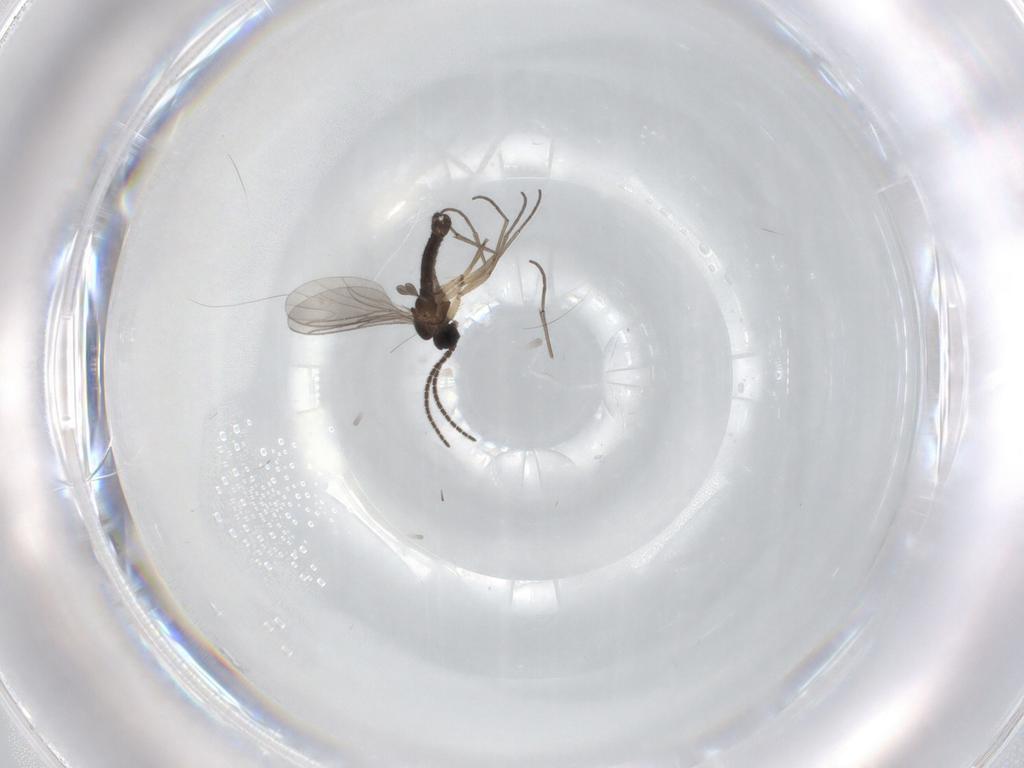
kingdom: Animalia
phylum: Arthropoda
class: Insecta
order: Diptera
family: Sciaridae
